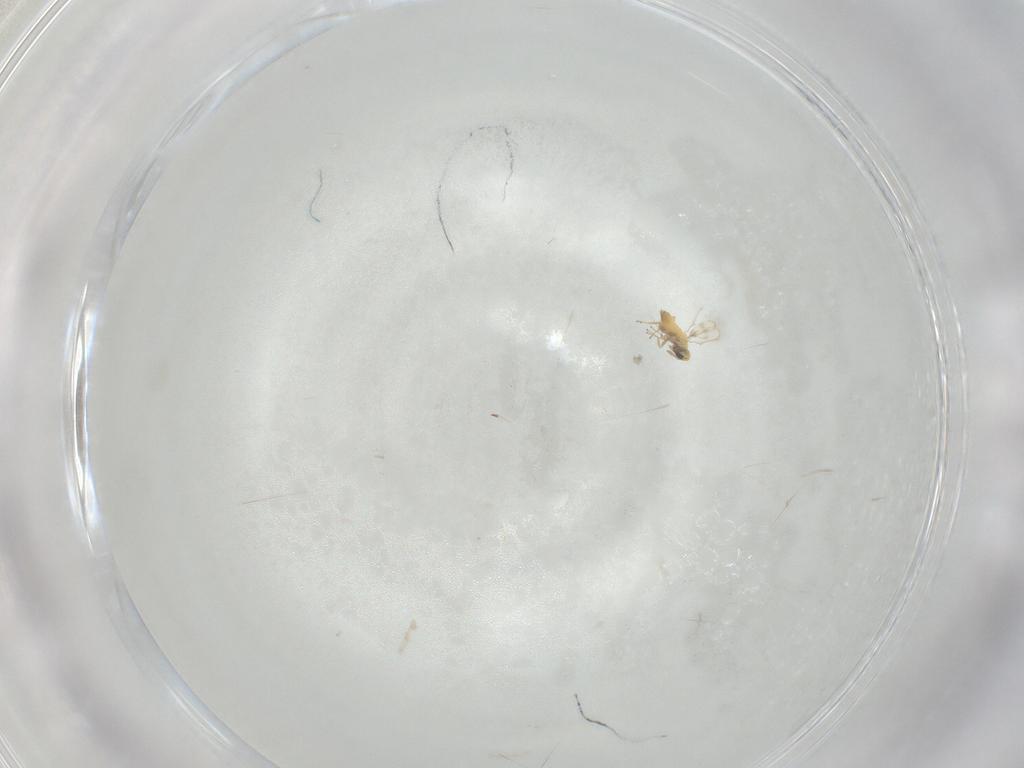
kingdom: Animalia
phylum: Arthropoda
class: Insecta
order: Hymenoptera
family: Trichogrammatidae
